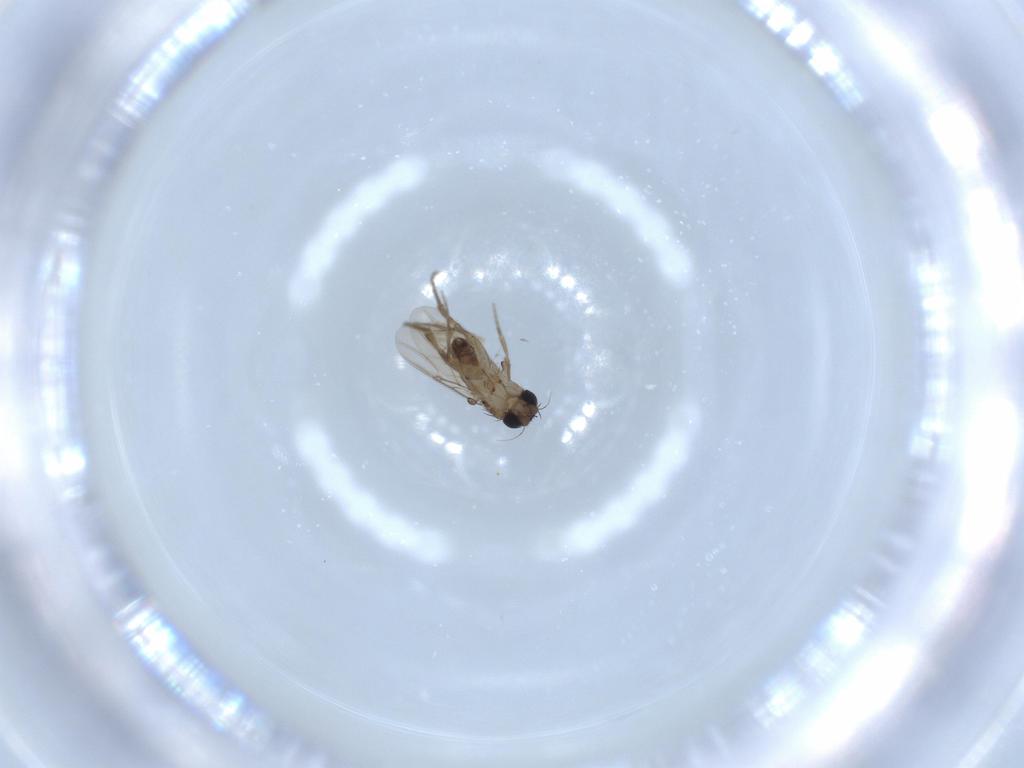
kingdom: Animalia
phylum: Arthropoda
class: Insecta
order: Diptera
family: Phoridae
